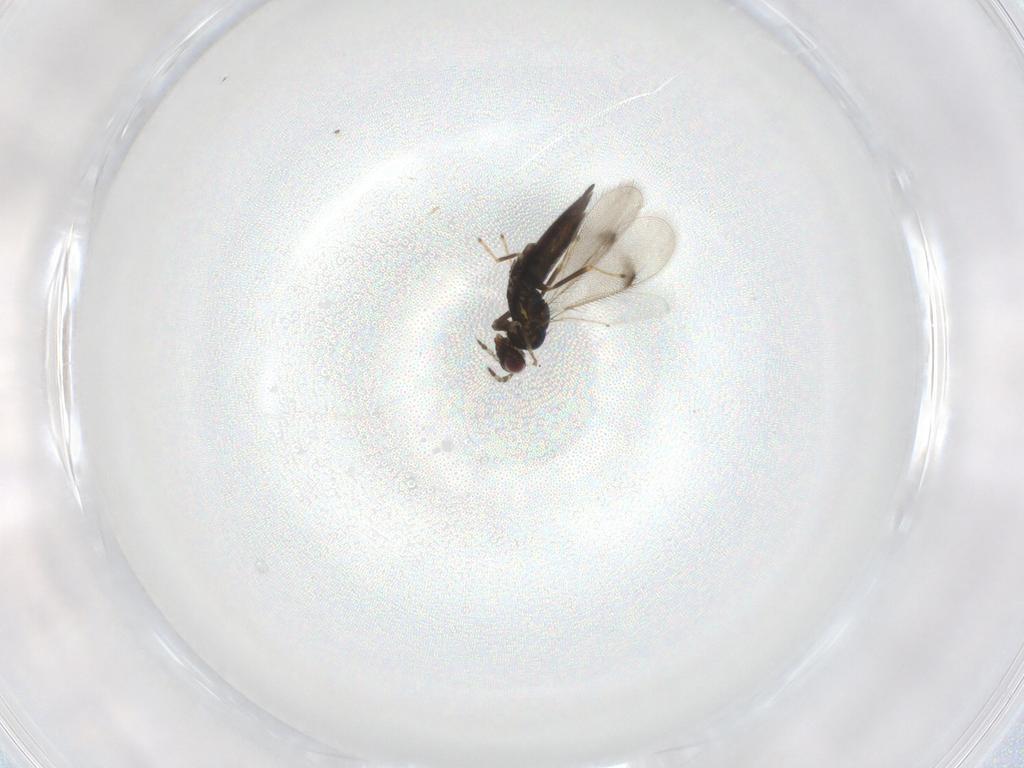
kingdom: Animalia
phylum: Arthropoda
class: Insecta
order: Hymenoptera
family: Eulophidae
